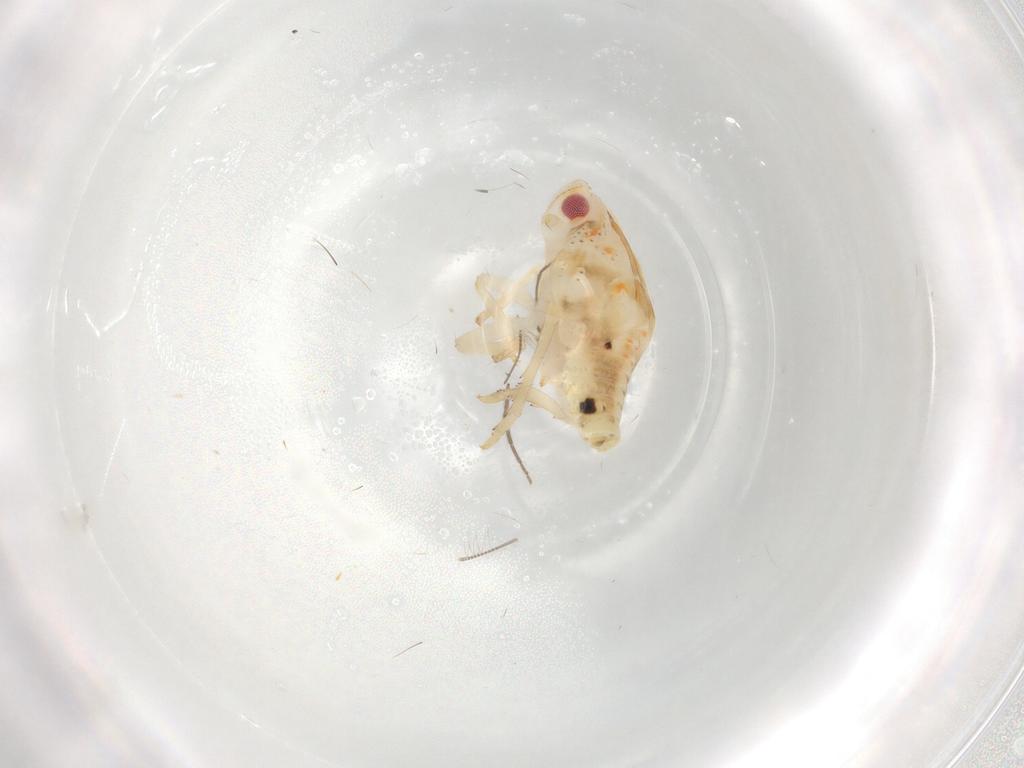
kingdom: Animalia
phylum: Arthropoda
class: Insecta
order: Hemiptera
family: Flatidae
